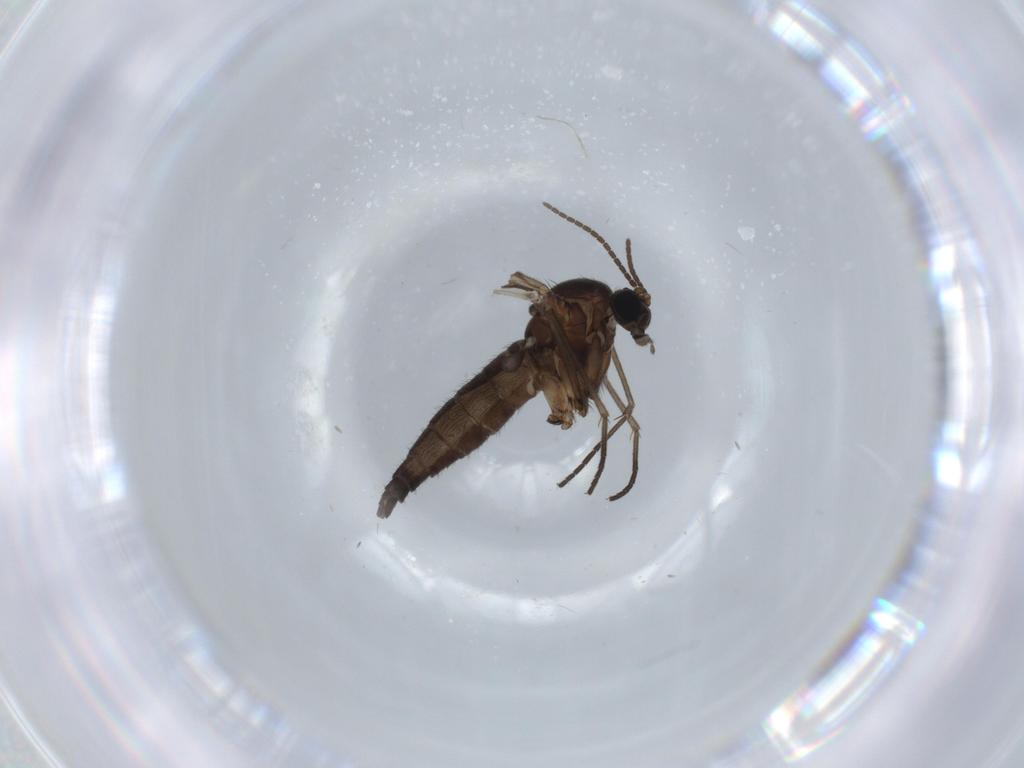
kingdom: Animalia
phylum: Arthropoda
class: Insecta
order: Diptera
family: Sciaridae
